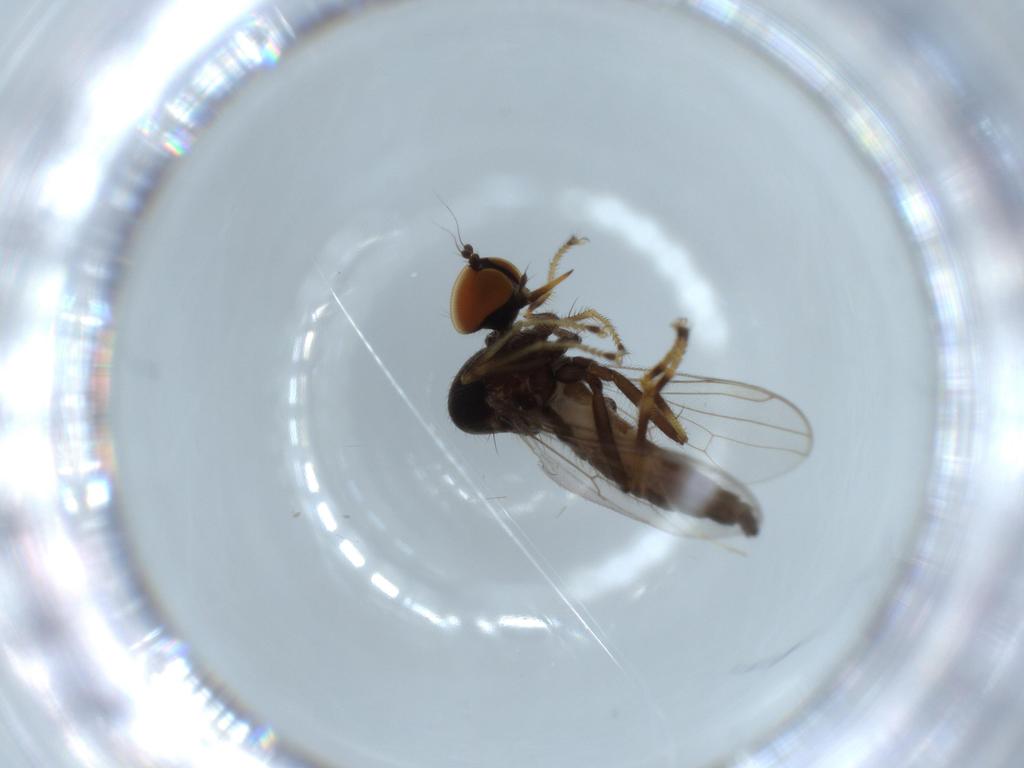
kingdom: Animalia
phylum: Arthropoda
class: Insecta
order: Diptera
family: Hybotidae
